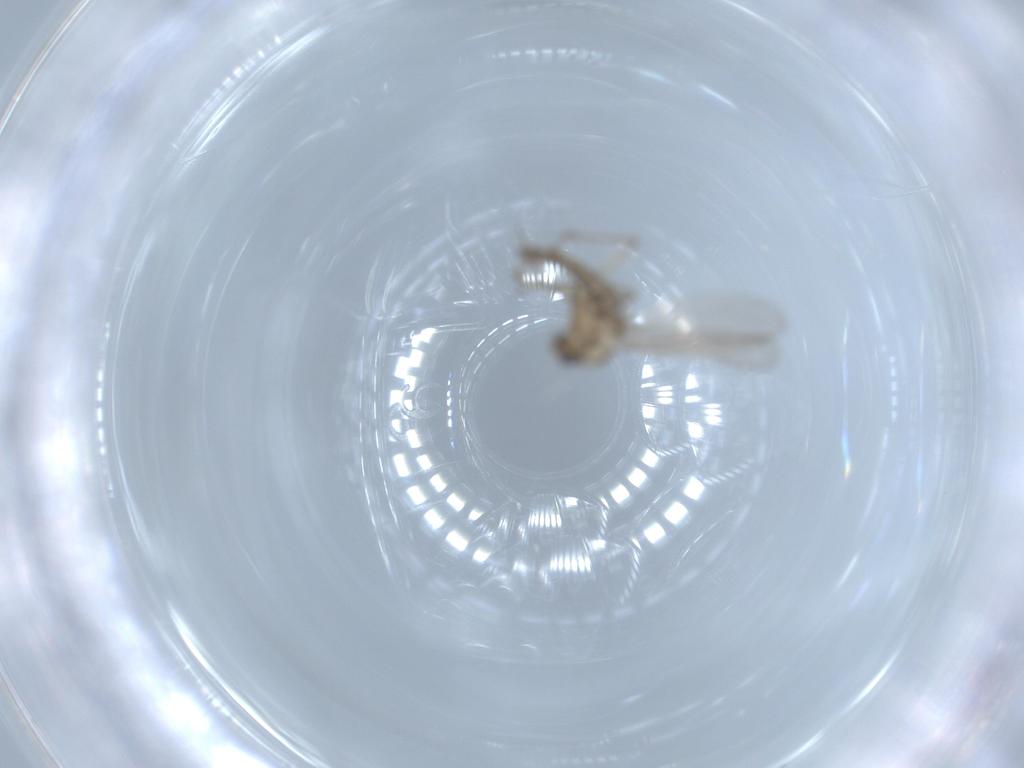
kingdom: Animalia
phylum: Arthropoda
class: Insecta
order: Diptera
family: Chironomidae
